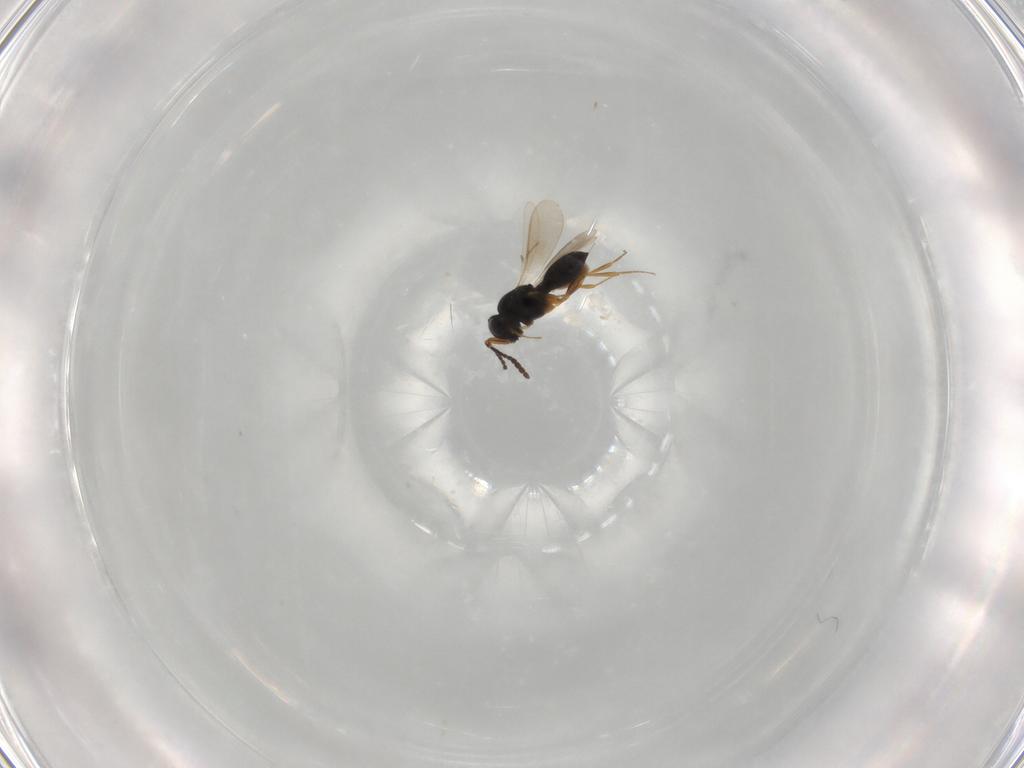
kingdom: Animalia
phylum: Arthropoda
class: Insecta
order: Hymenoptera
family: Scelionidae
